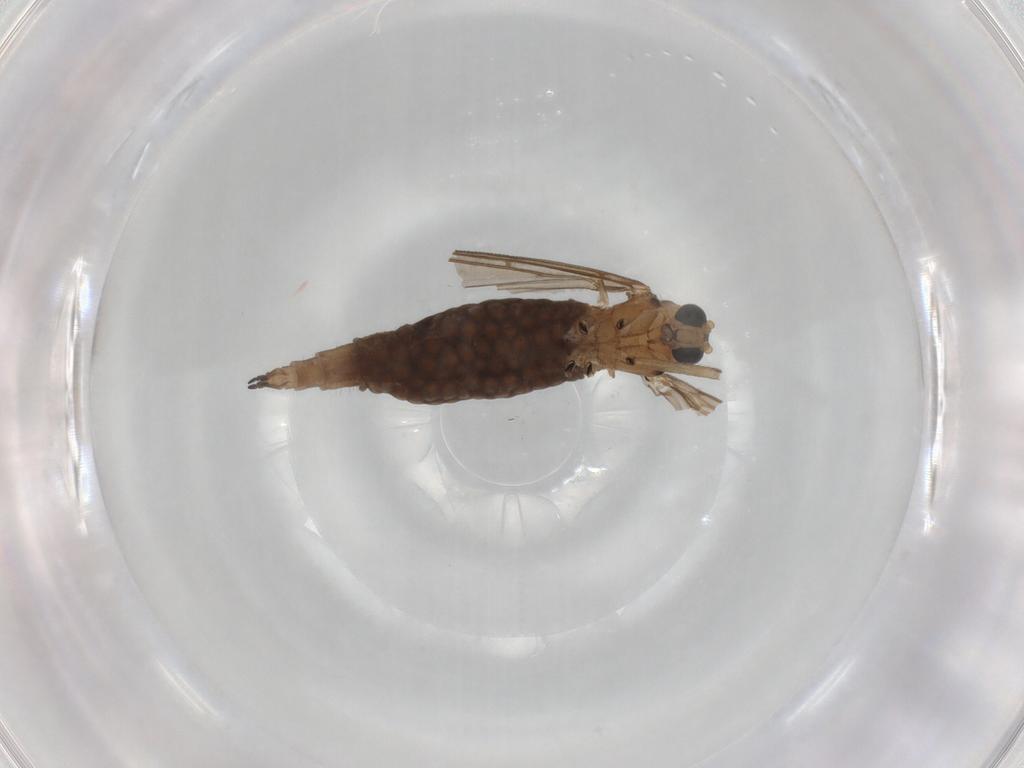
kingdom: Animalia
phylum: Arthropoda
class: Insecta
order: Diptera
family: Sciaridae
